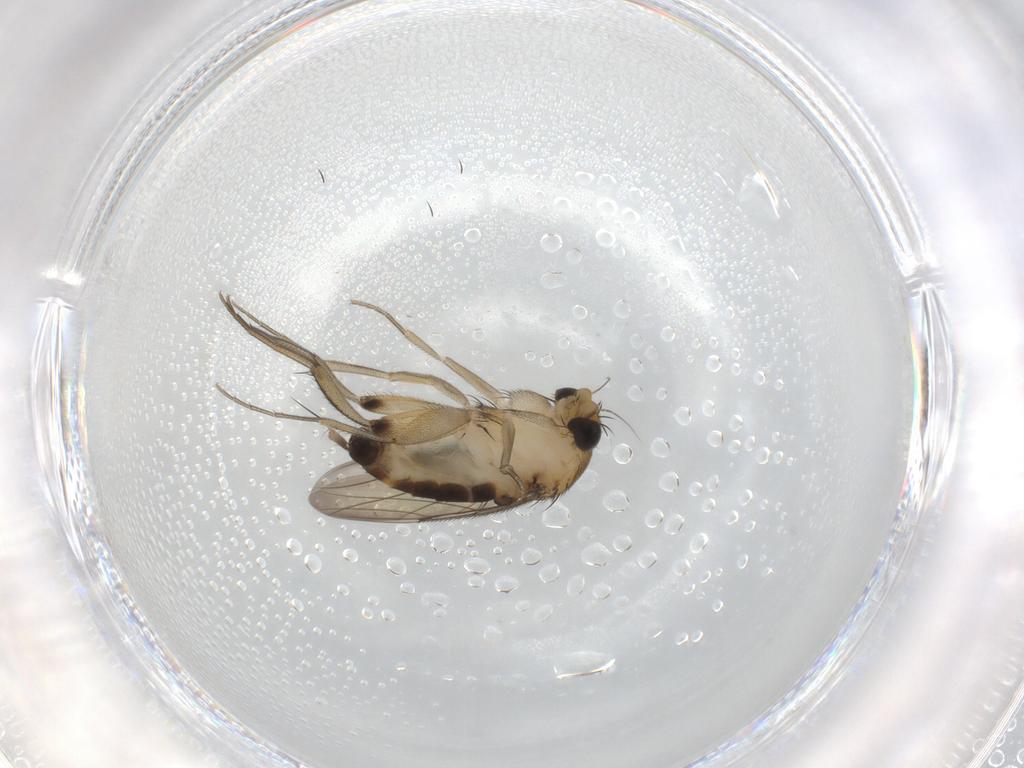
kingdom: Animalia
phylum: Arthropoda
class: Insecta
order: Diptera
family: Phoridae
